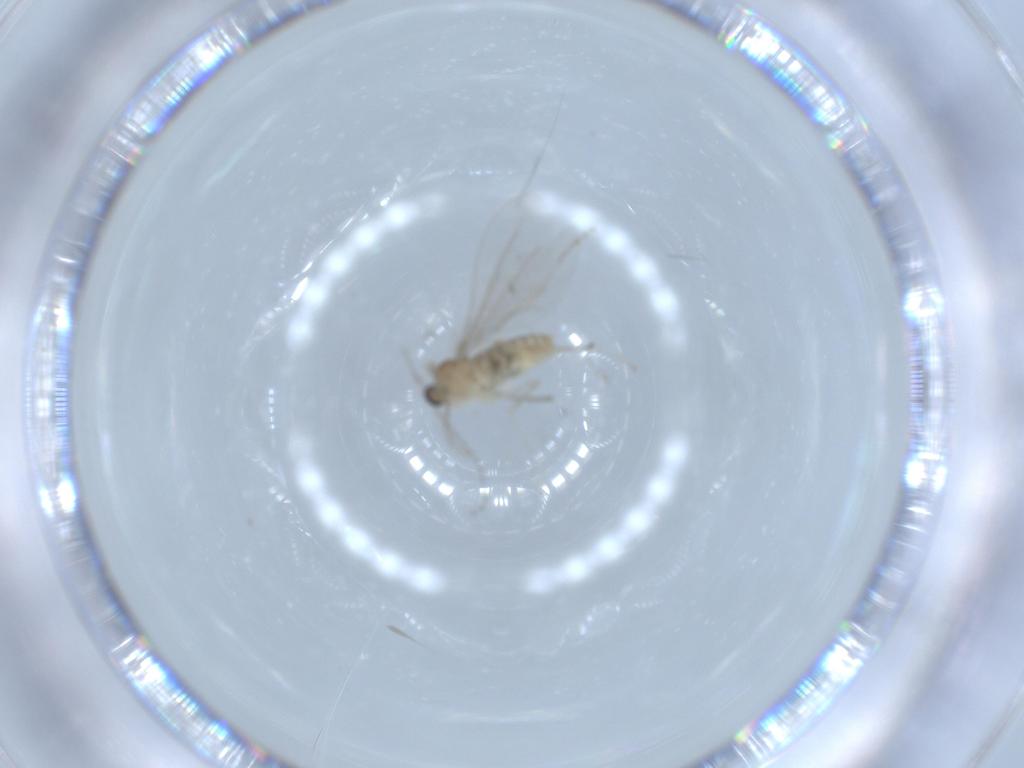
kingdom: Animalia
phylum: Arthropoda
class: Insecta
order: Diptera
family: Cecidomyiidae
